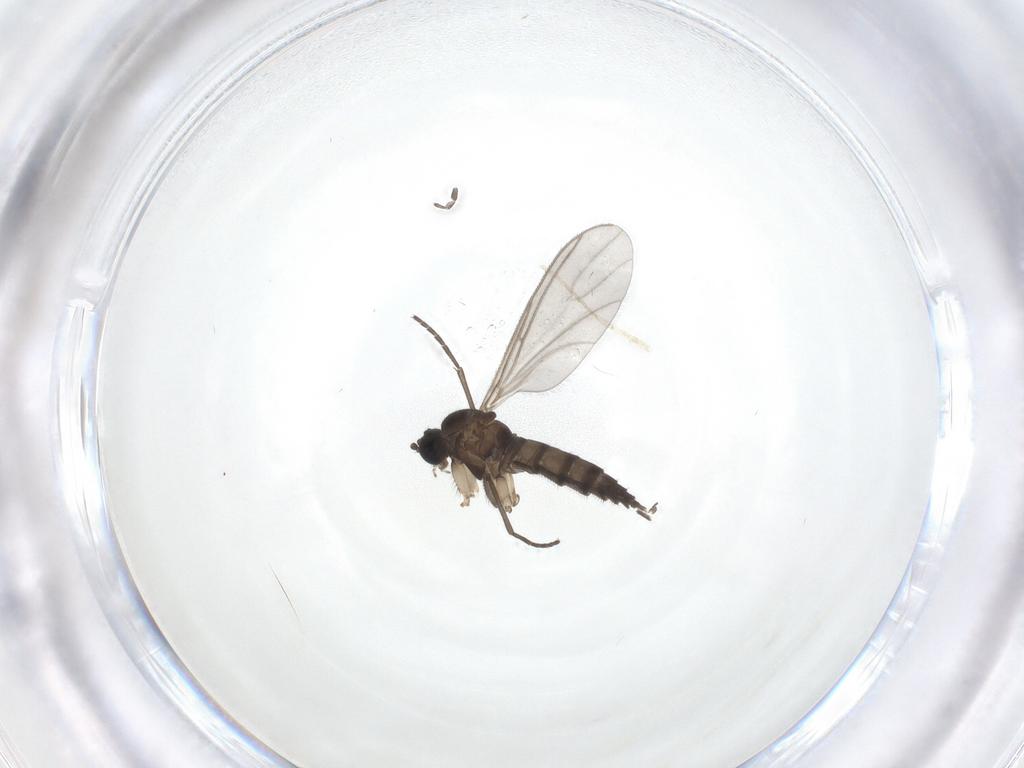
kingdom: Animalia
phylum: Arthropoda
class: Insecta
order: Diptera
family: Sciaridae
